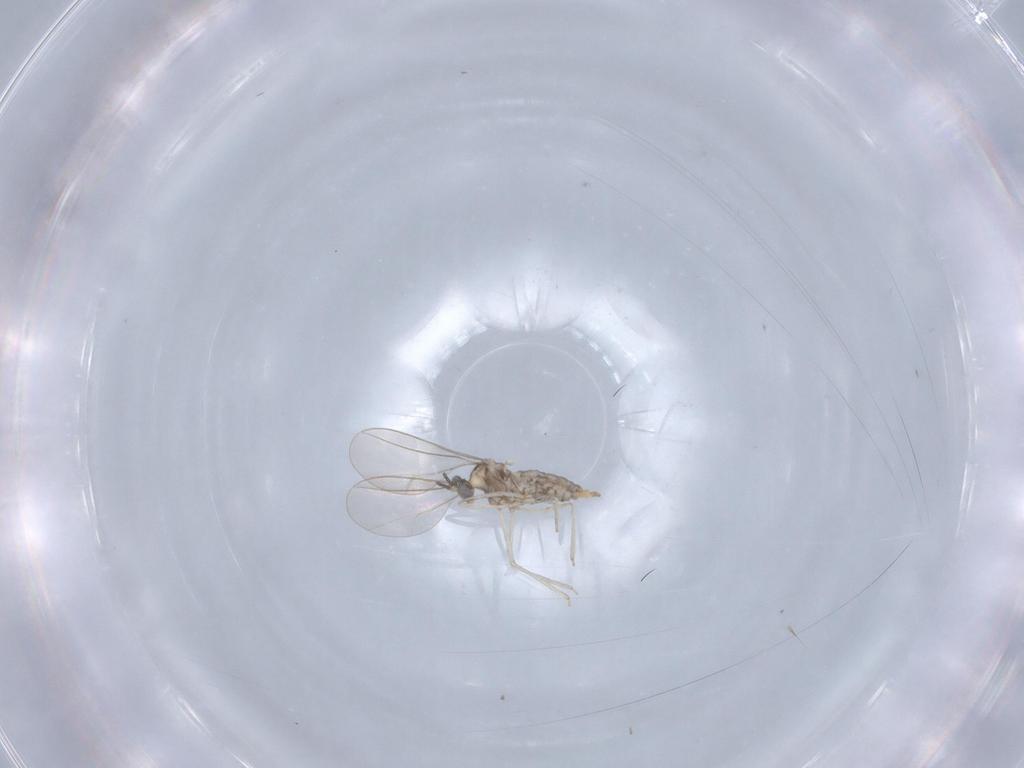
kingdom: Animalia
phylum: Arthropoda
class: Insecta
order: Diptera
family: Cecidomyiidae
